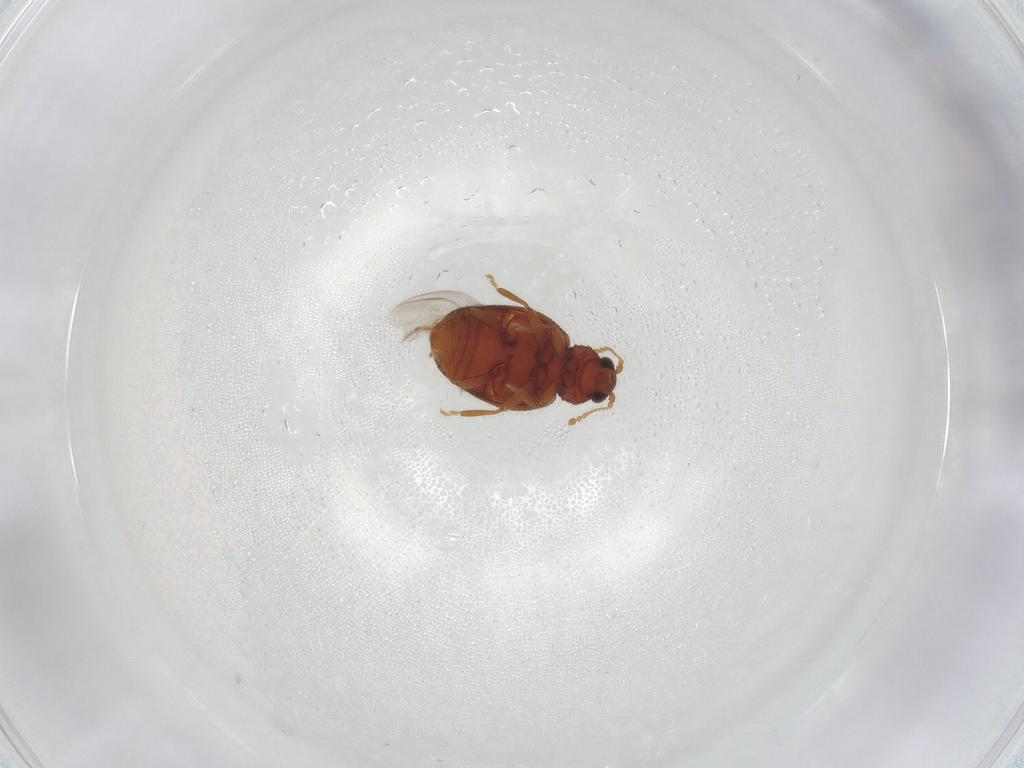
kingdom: Animalia
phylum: Arthropoda
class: Insecta
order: Coleoptera
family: Latridiidae
